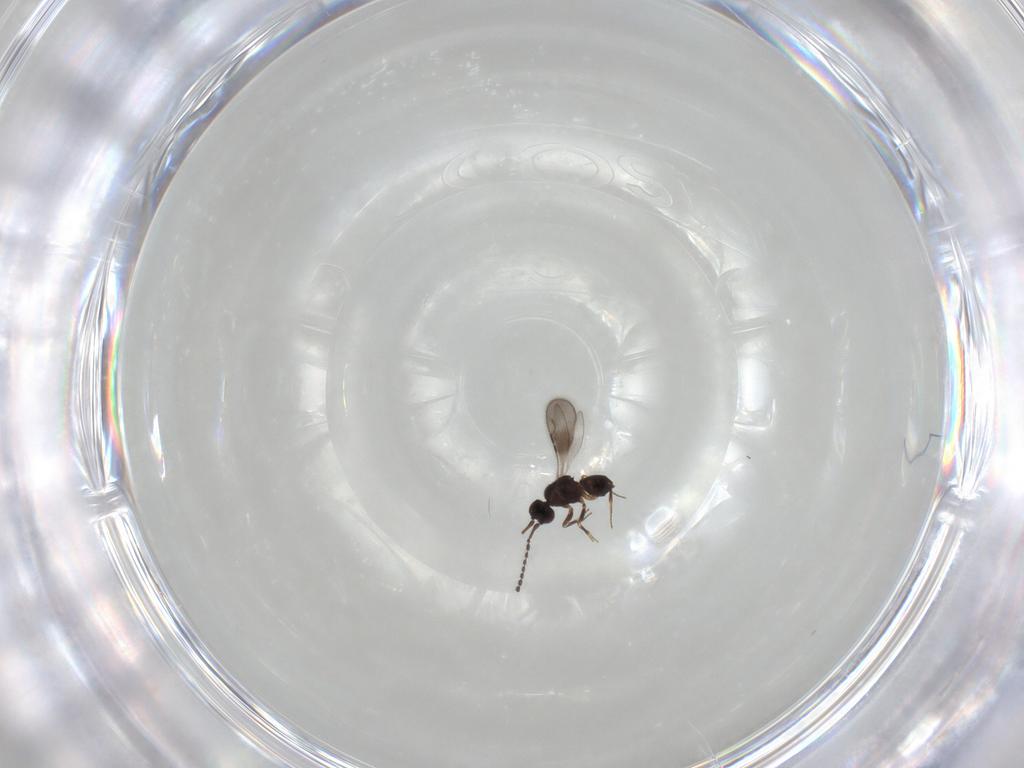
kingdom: Animalia
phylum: Arthropoda
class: Insecta
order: Hymenoptera
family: Ceraphronidae
